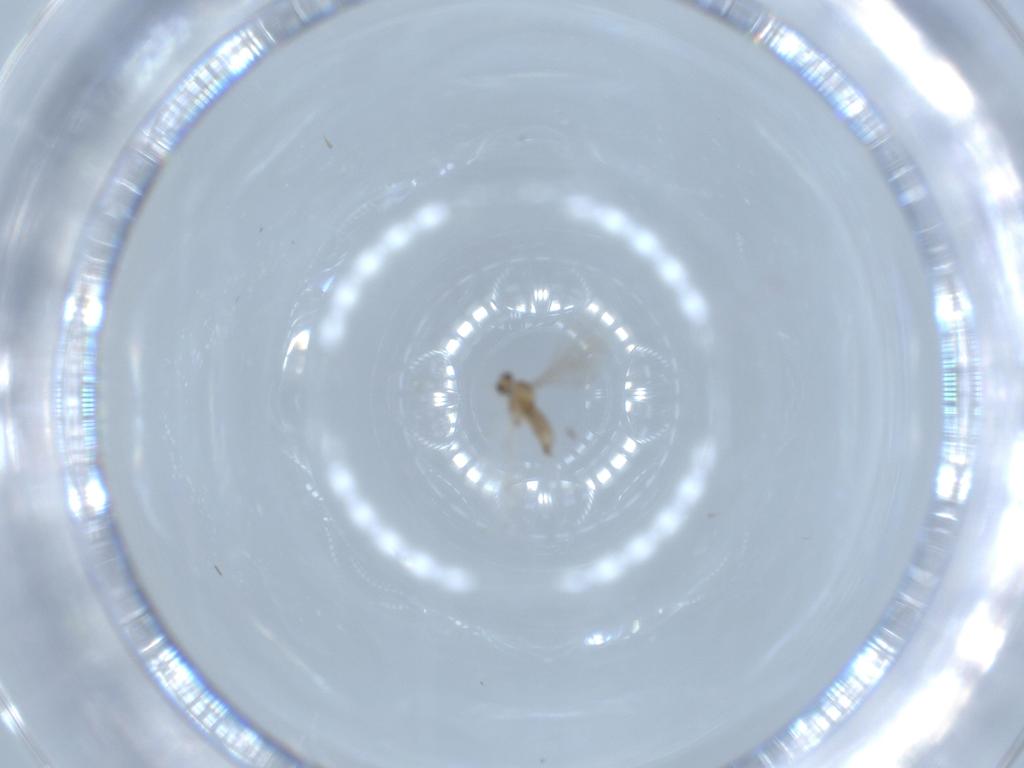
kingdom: Animalia
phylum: Arthropoda
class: Insecta
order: Diptera
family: Cecidomyiidae
